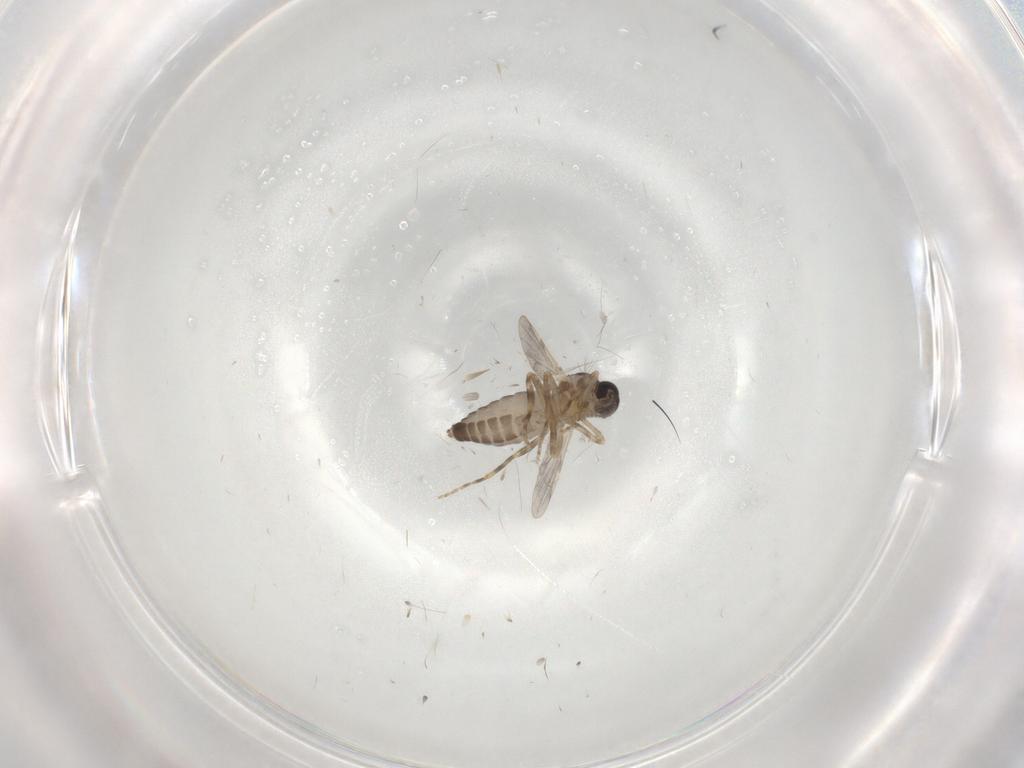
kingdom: Animalia
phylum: Arthropoda
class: Insecta
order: Diptera
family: Ceratopogonidae
